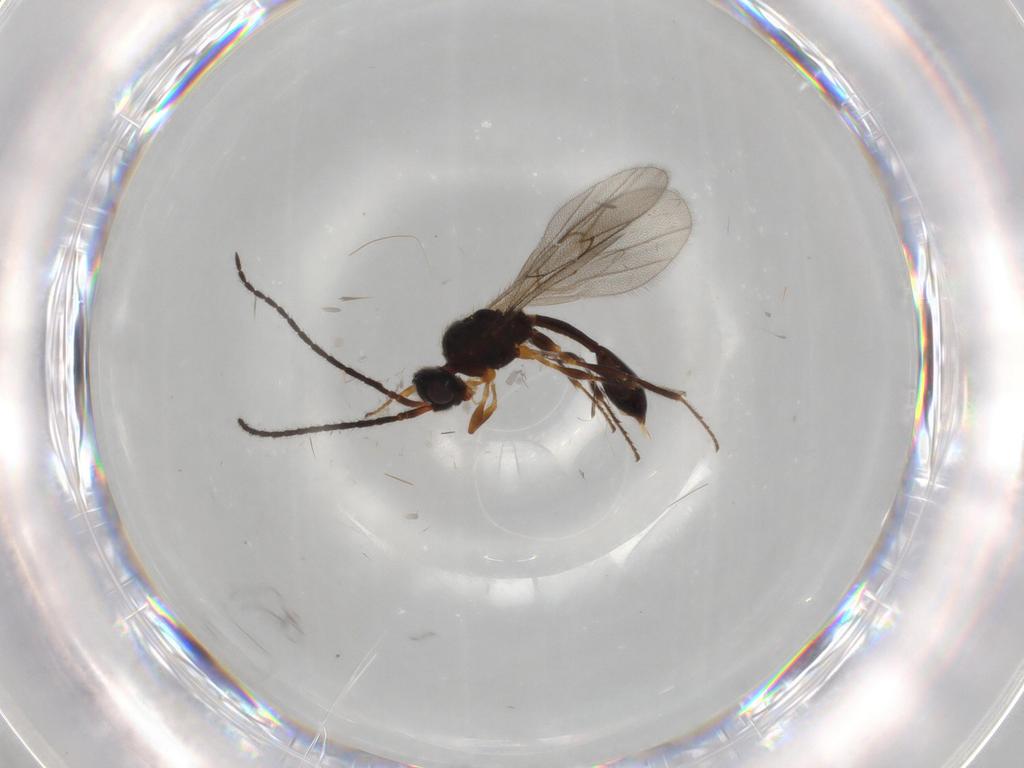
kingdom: Animalia
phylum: Arthropoda
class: Insecta
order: Hymenoptera
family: Diapriidae
